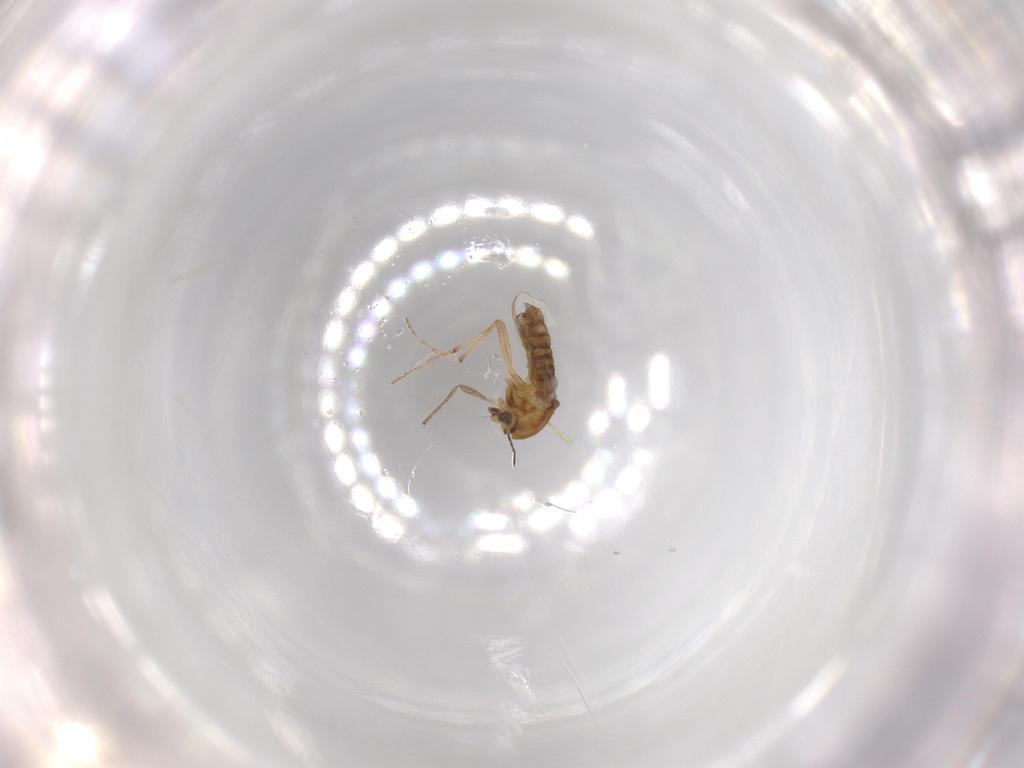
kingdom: Animalia
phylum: Arthropoda
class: Insecta
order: Diptera
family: Chironomidae
